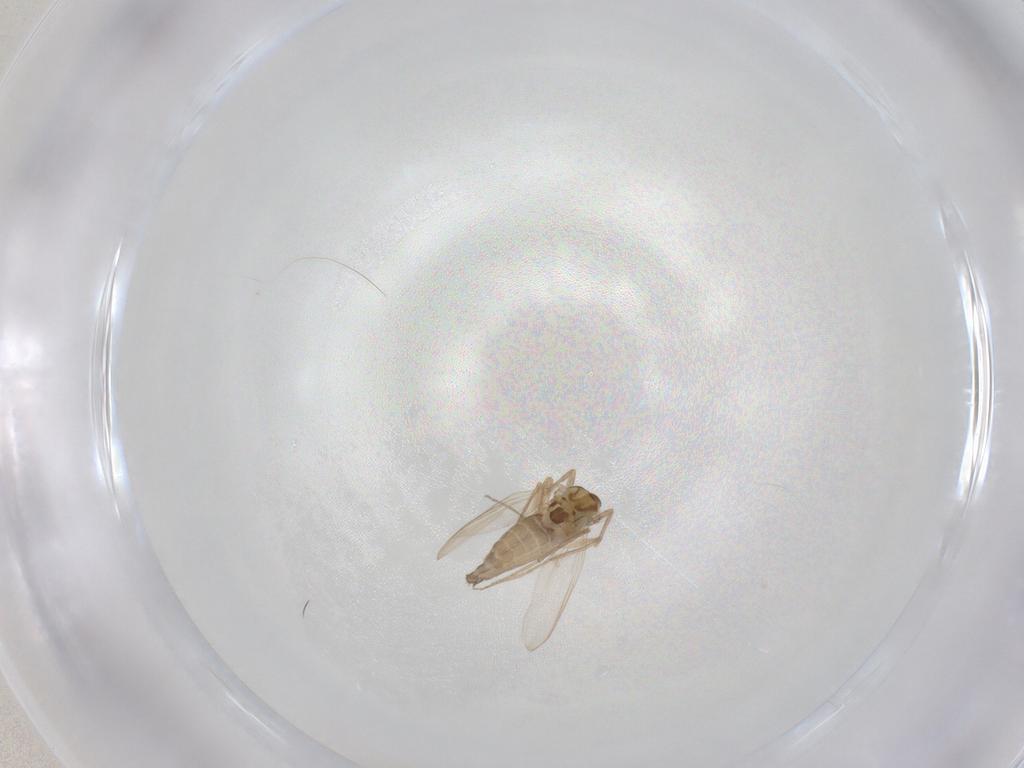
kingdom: Animalia
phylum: Arthropoda
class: Insecta
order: Diptera
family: Chironomidae
